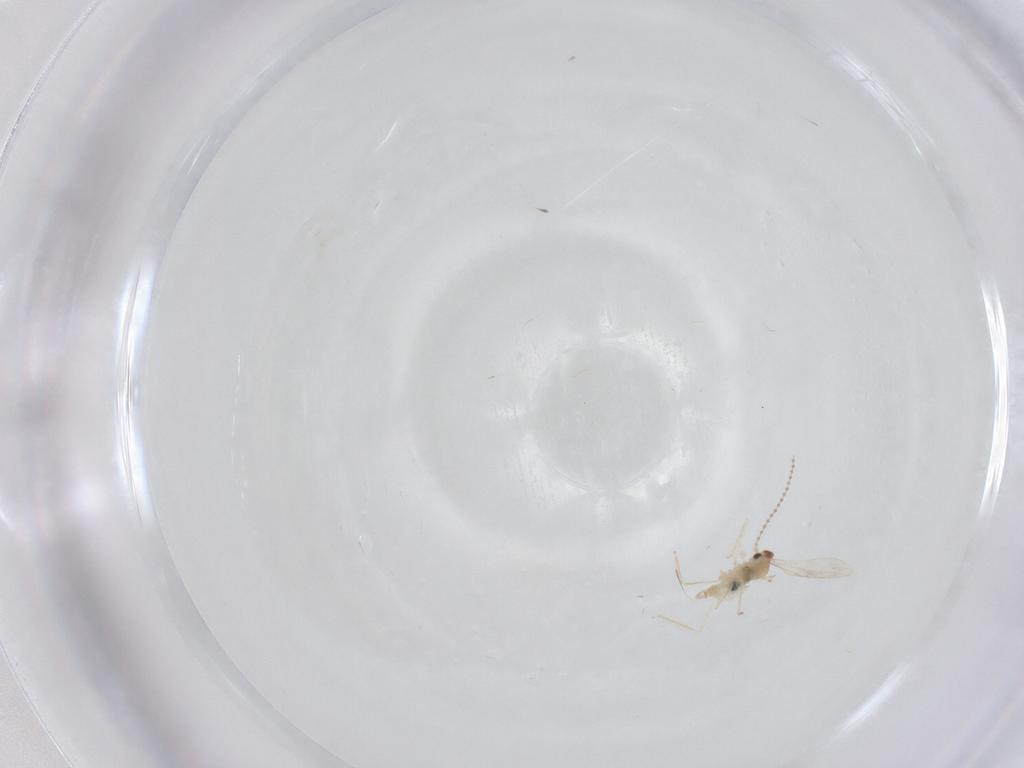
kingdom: Animalia
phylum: Arthropoda
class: Insecta
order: Diptera
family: Cecidomyiidae
